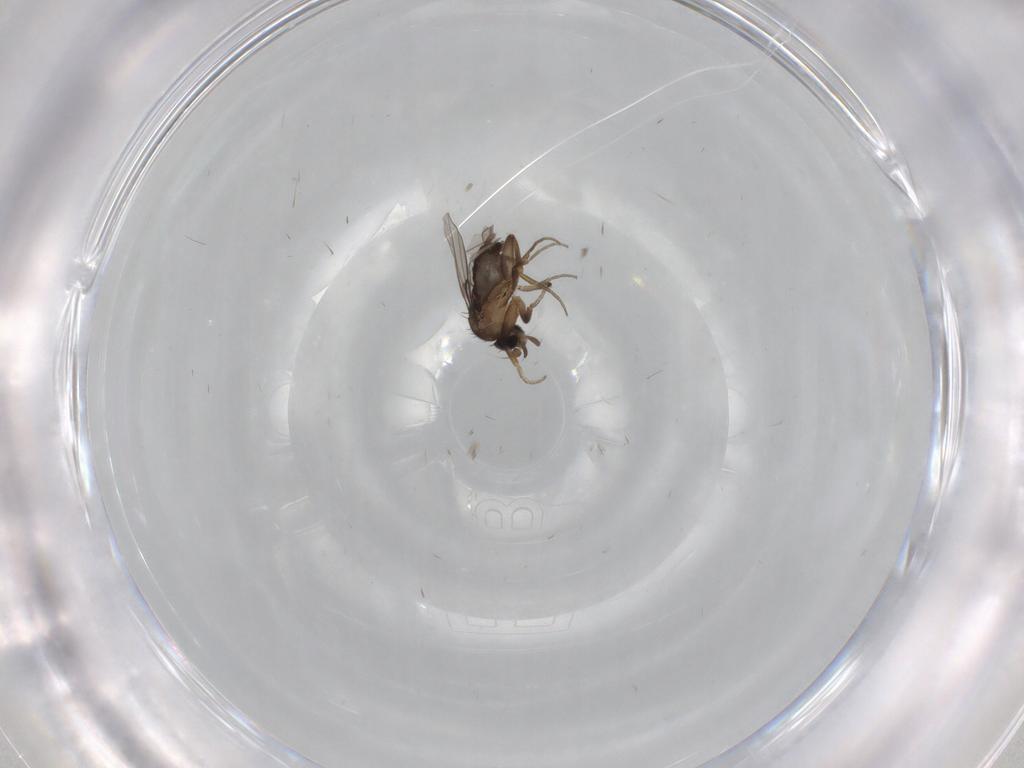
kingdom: Animalia
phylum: Arthropoda
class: Insecta
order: Diptera
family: Phoridae
